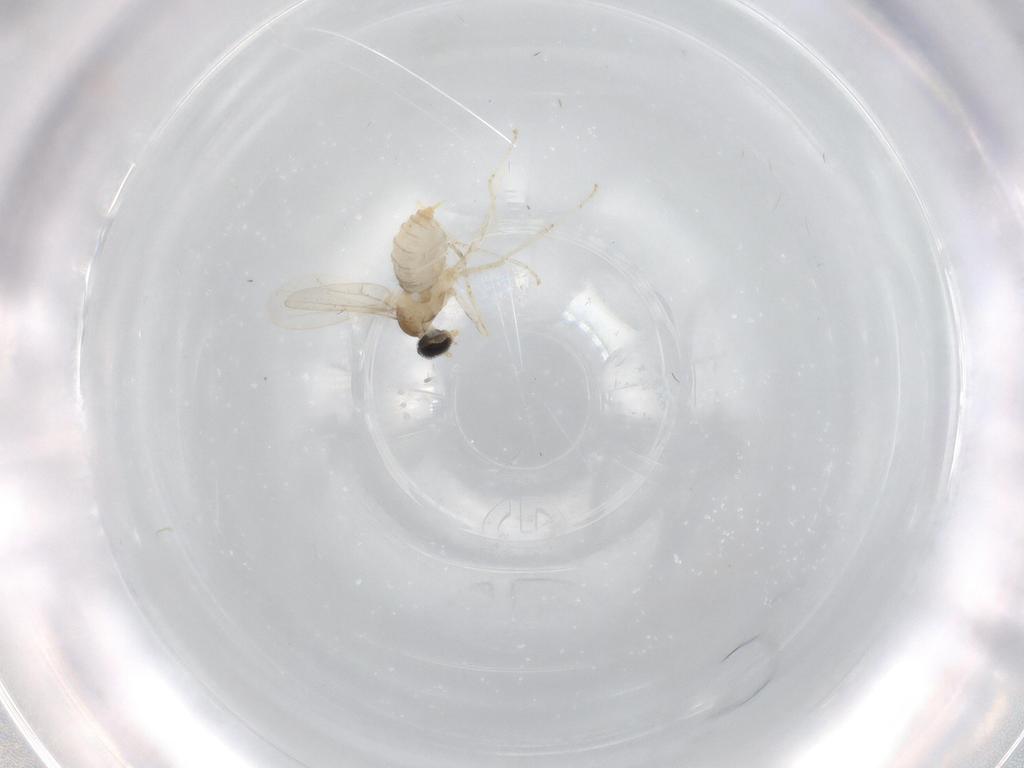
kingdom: Animalia
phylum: Arthropoda
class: Insecta
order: Diptera
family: Cecidomyiidae
